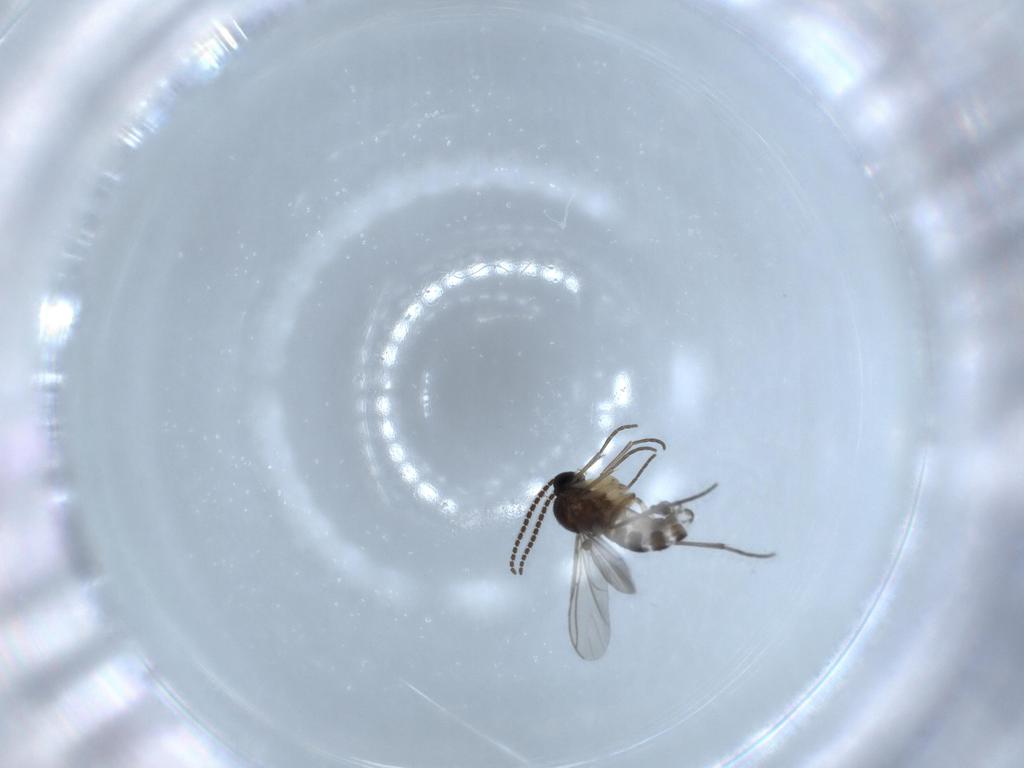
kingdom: Animalia
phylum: Arthropoda
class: Insecta
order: Diptera
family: Sciaridae
